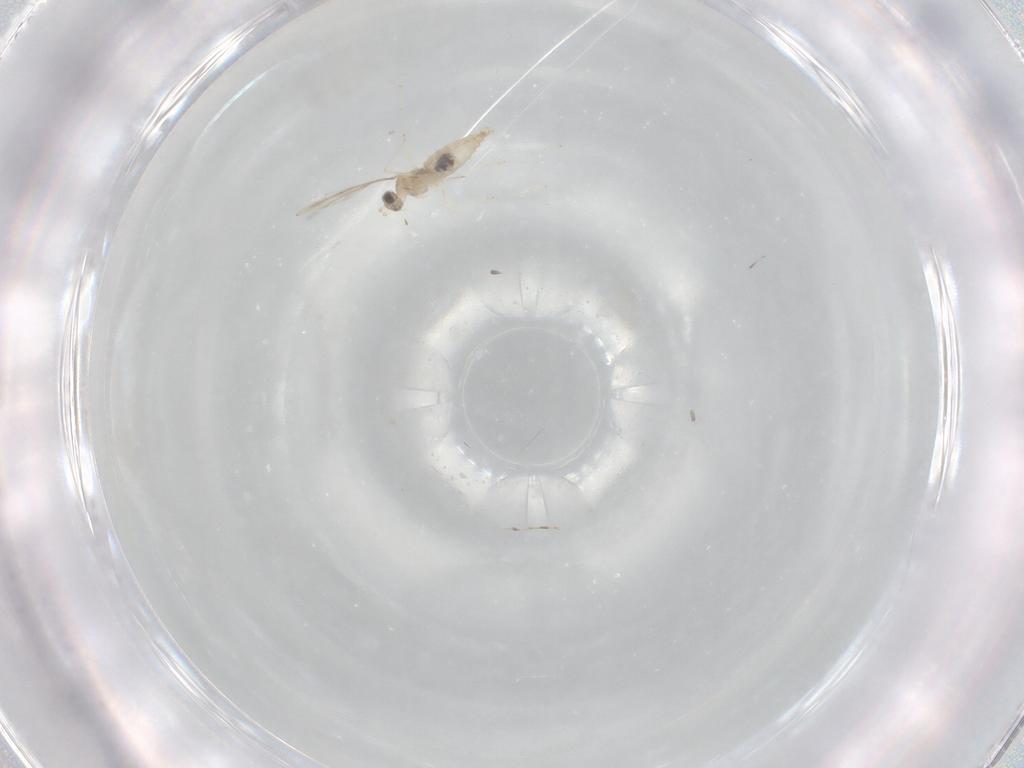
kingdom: Animalia
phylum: Arthropoda
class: Insecta
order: Diptera
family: Cecidomyiidae
